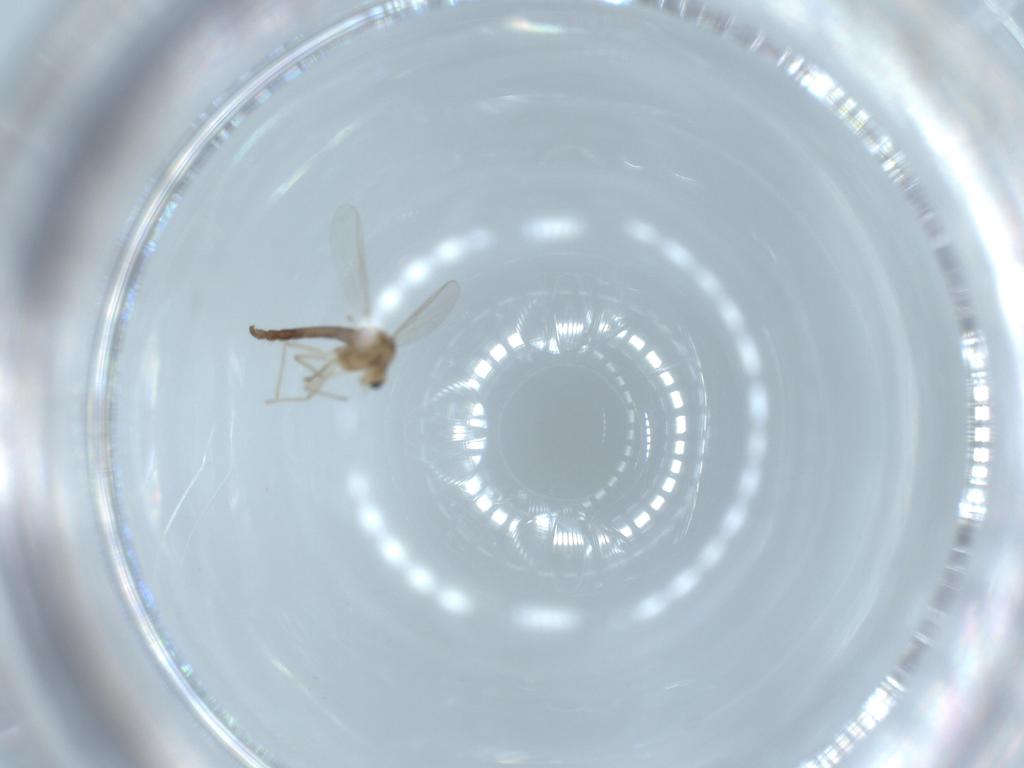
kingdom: Animalia
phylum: Arthropoda
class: Insecta
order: Diptera
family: Chironomidae
